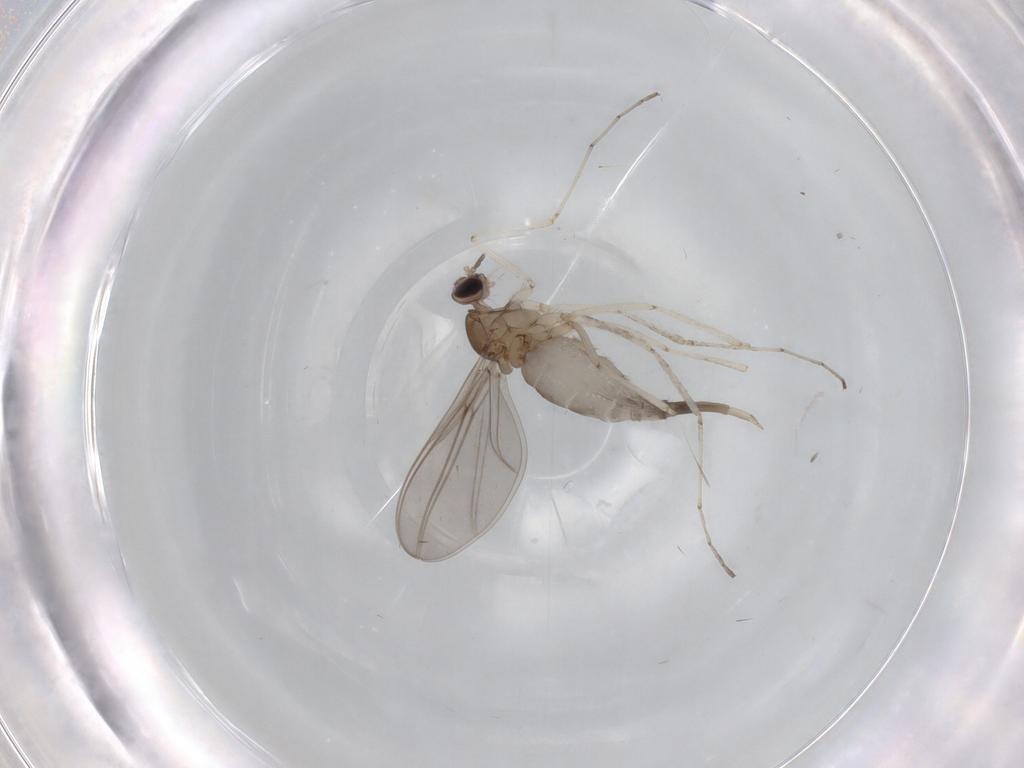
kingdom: Animalia
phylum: Arthropoda
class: Insecta
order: Diptera
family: Cecidomyiidae
